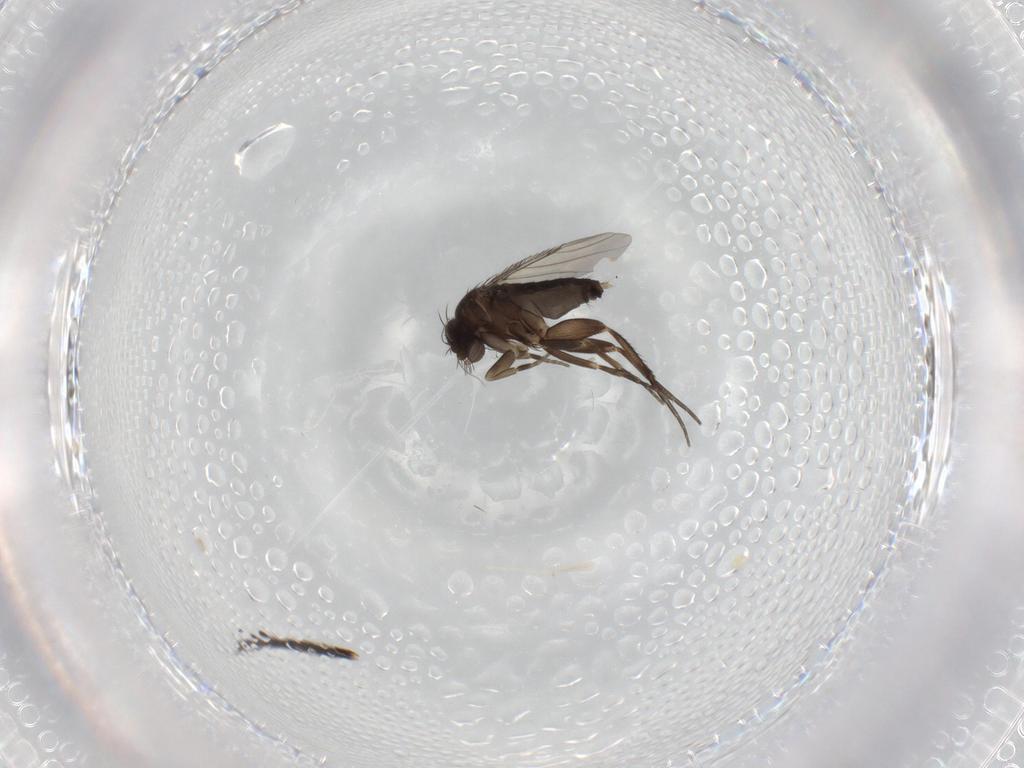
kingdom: Animalia
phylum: Arthropoda
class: Insecta
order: Diptera
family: Phoridae
